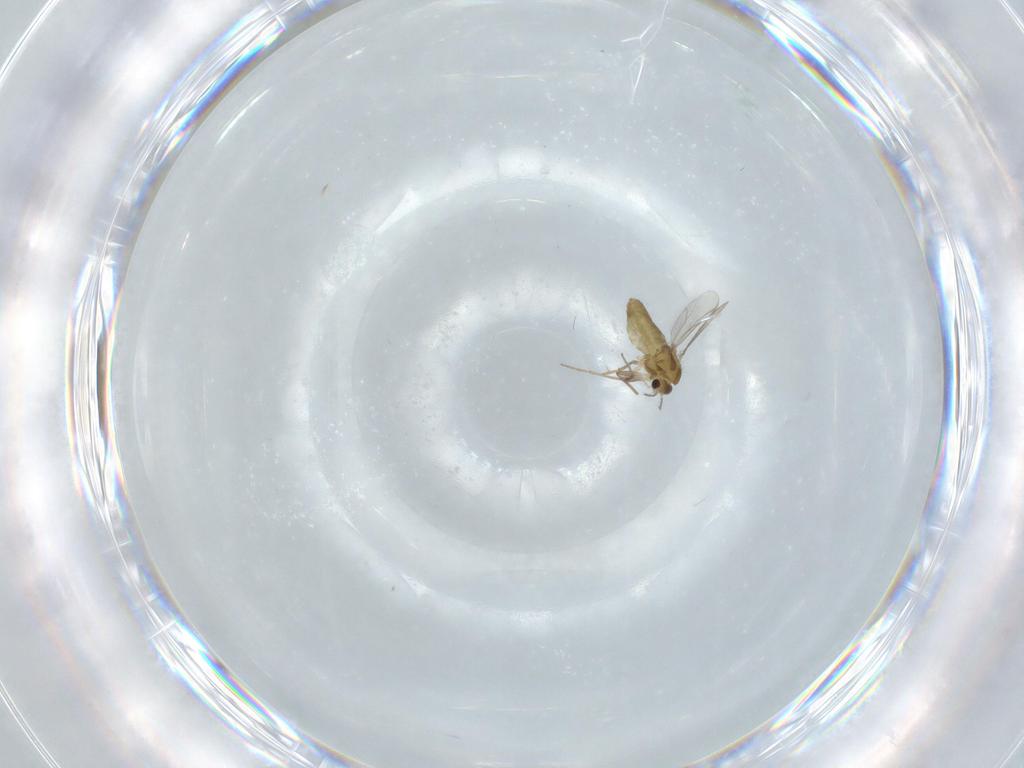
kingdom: Animalia
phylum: Arthropoda
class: Insecta
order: Diptera
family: Chironomidae
